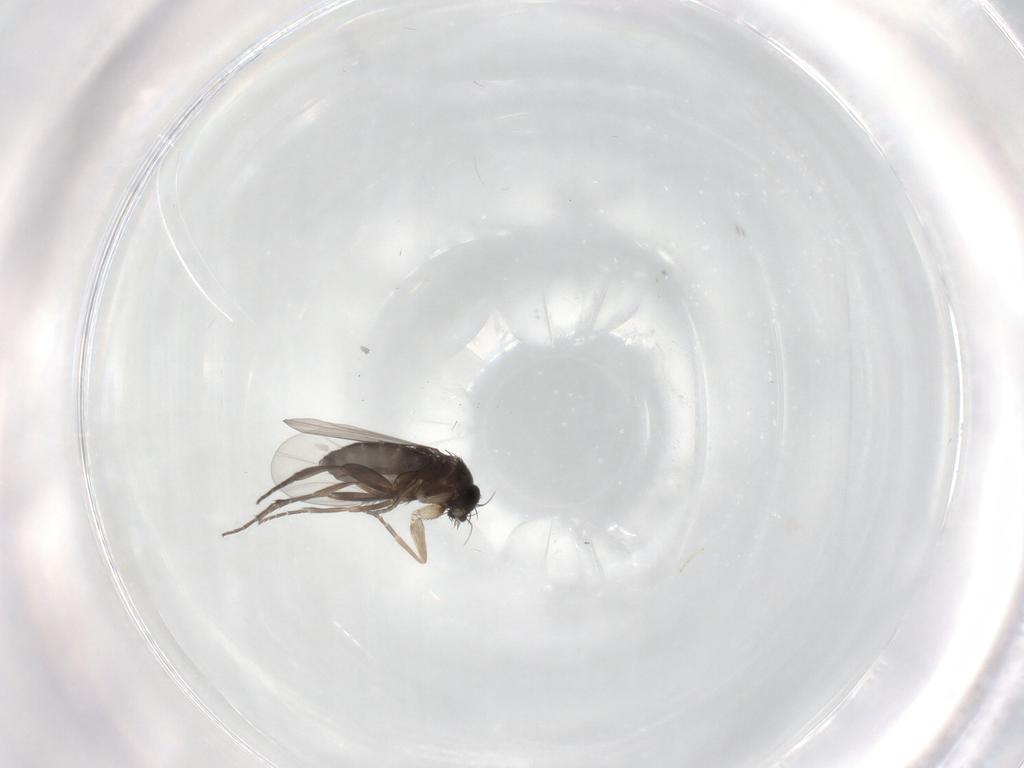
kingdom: Animalia
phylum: Arthropoda
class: Insecta
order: Diptera
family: Phoridae
